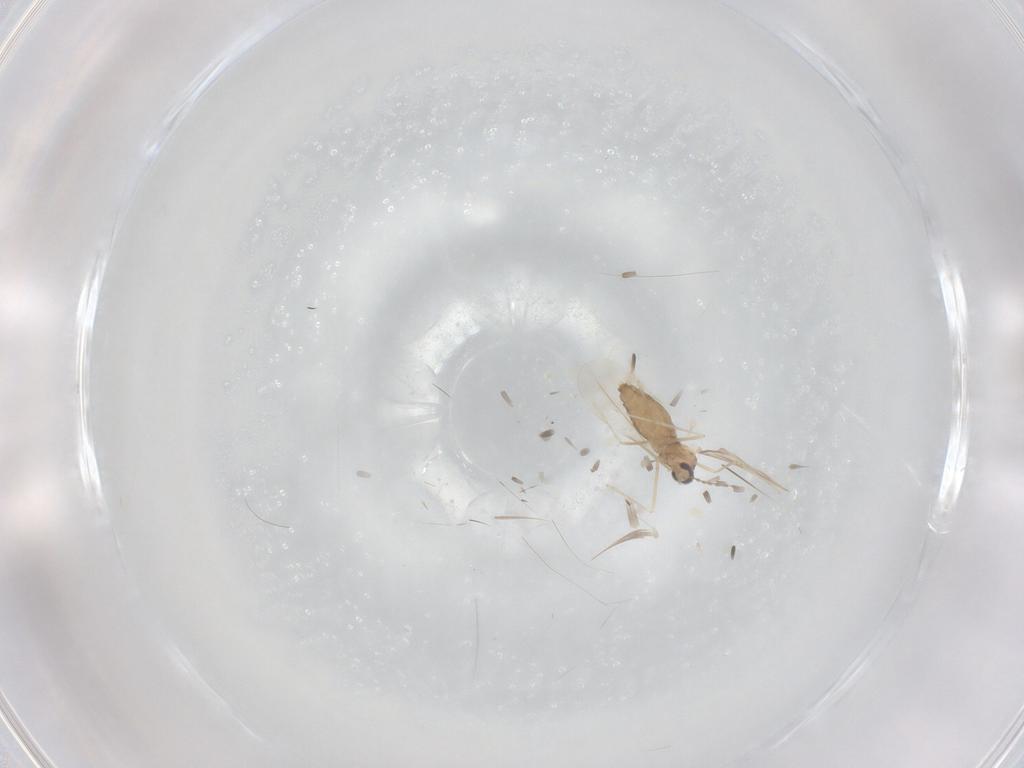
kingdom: Animalia
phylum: Arthropoda
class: Insecta
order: Diptera
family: Cecidomyiidae
